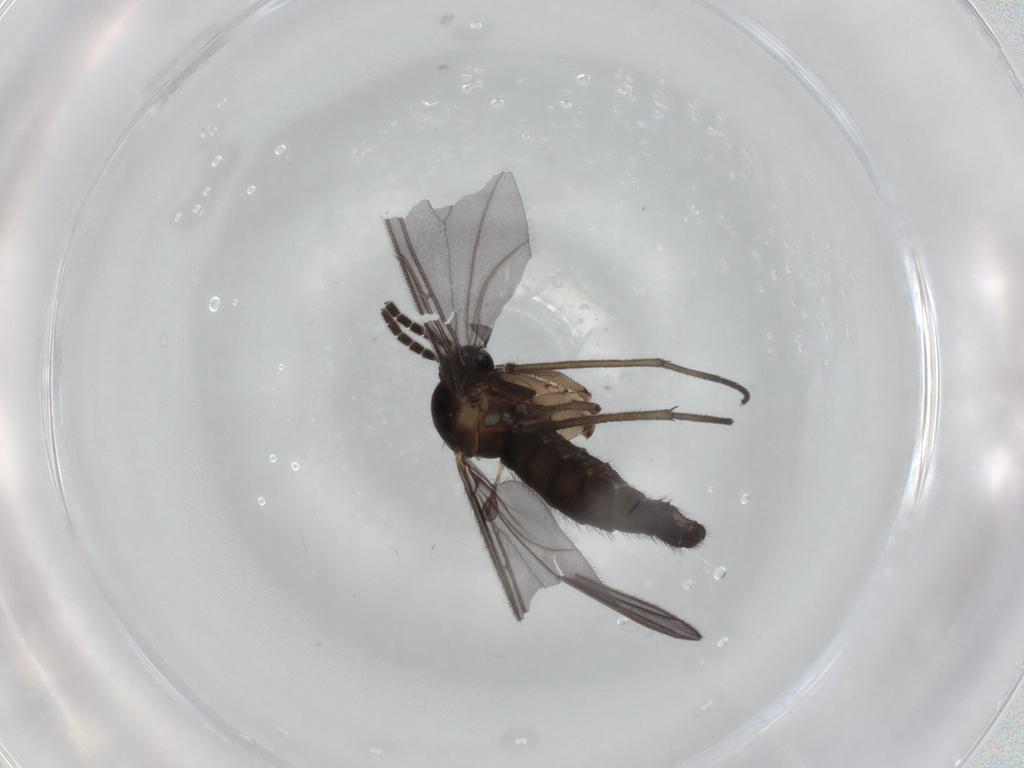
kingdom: Animalia
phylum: Arthropoda
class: Insecta
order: Diptera
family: Sciaridae
